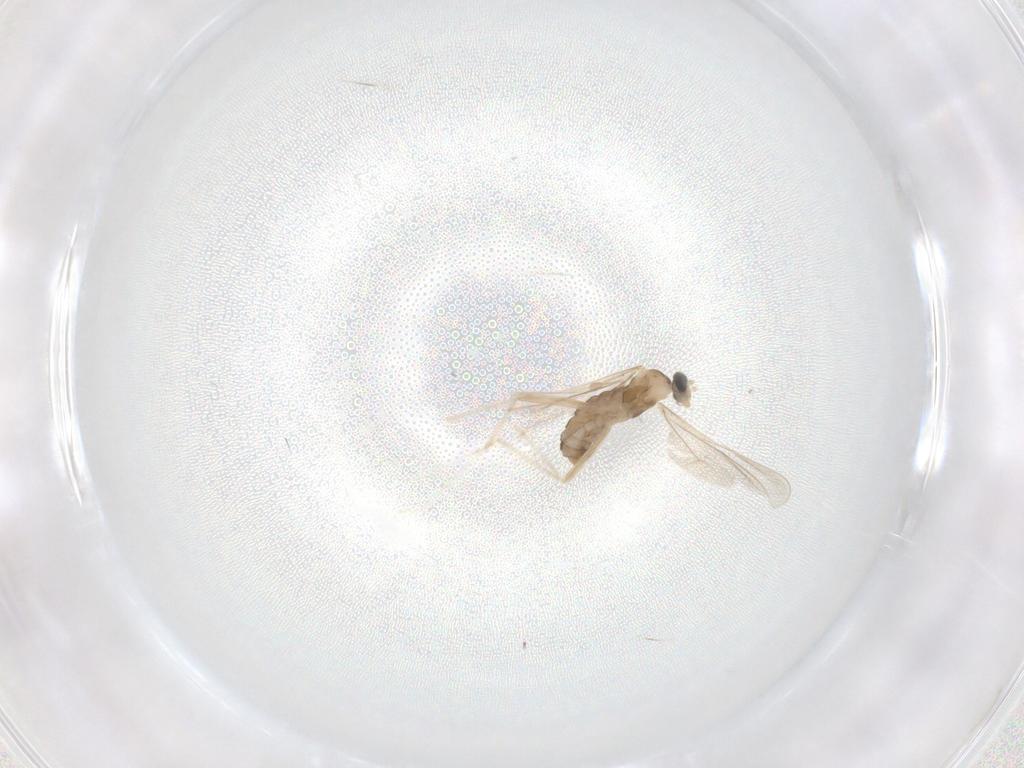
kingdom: Animalia
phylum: Arthropoda
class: Insecta
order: Diptera
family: Cecidomyiidae
